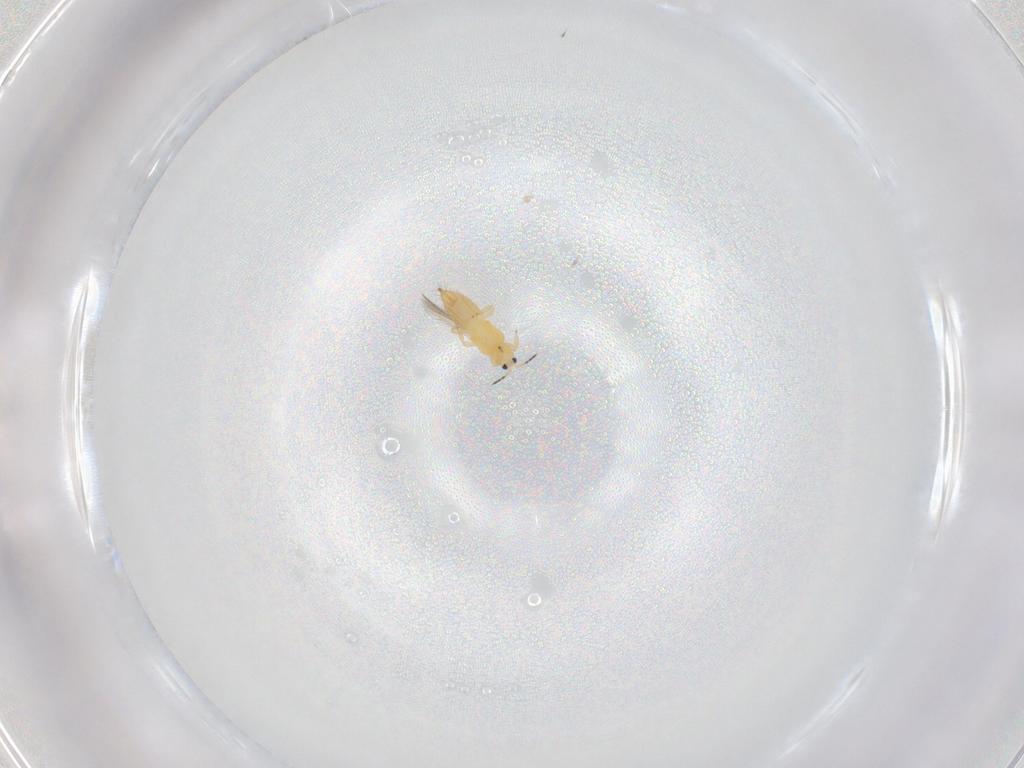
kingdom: Animalia
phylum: Arthropoda
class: Insecta
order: Thysanoptera
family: Thripidae
